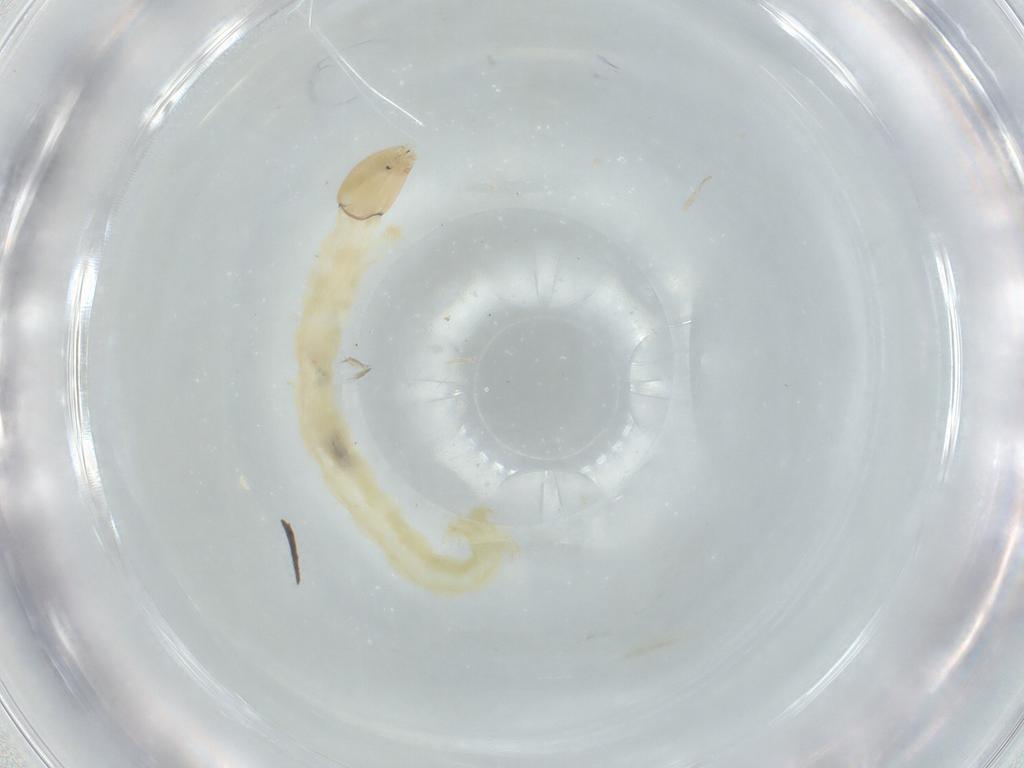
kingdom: Animalia
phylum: Arthropoda
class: Insecta
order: Diptera
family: Chironomidae
